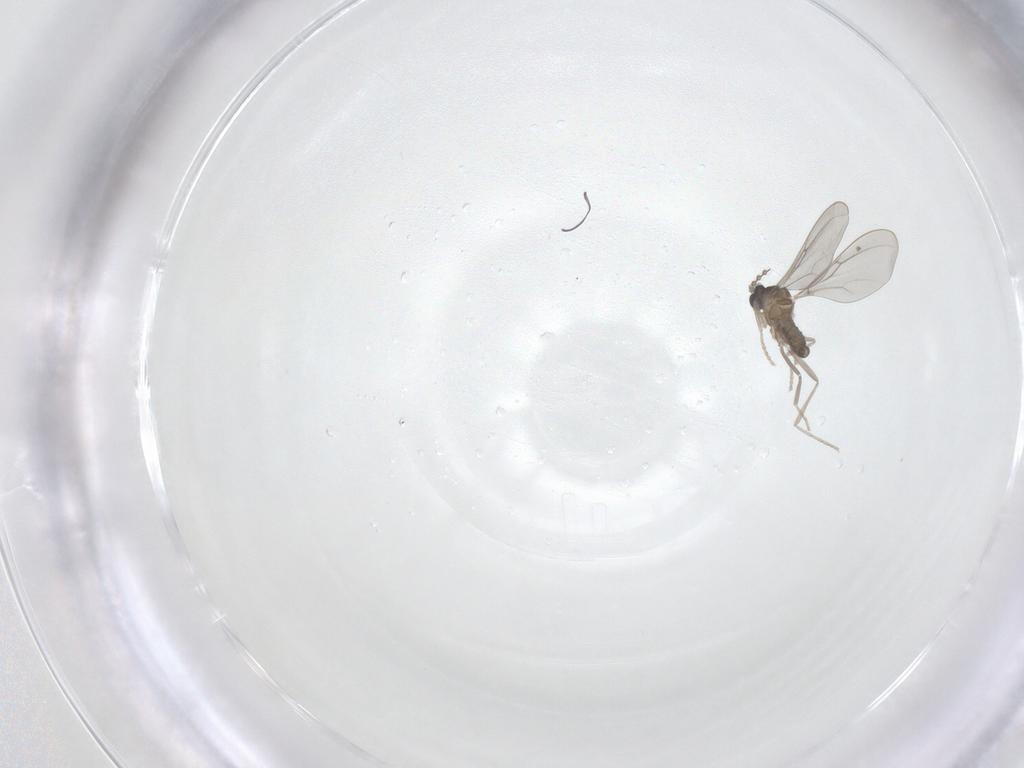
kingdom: Animalia
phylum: Arthropoda
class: Insecta
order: Diptera
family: Cecidomyiidae
